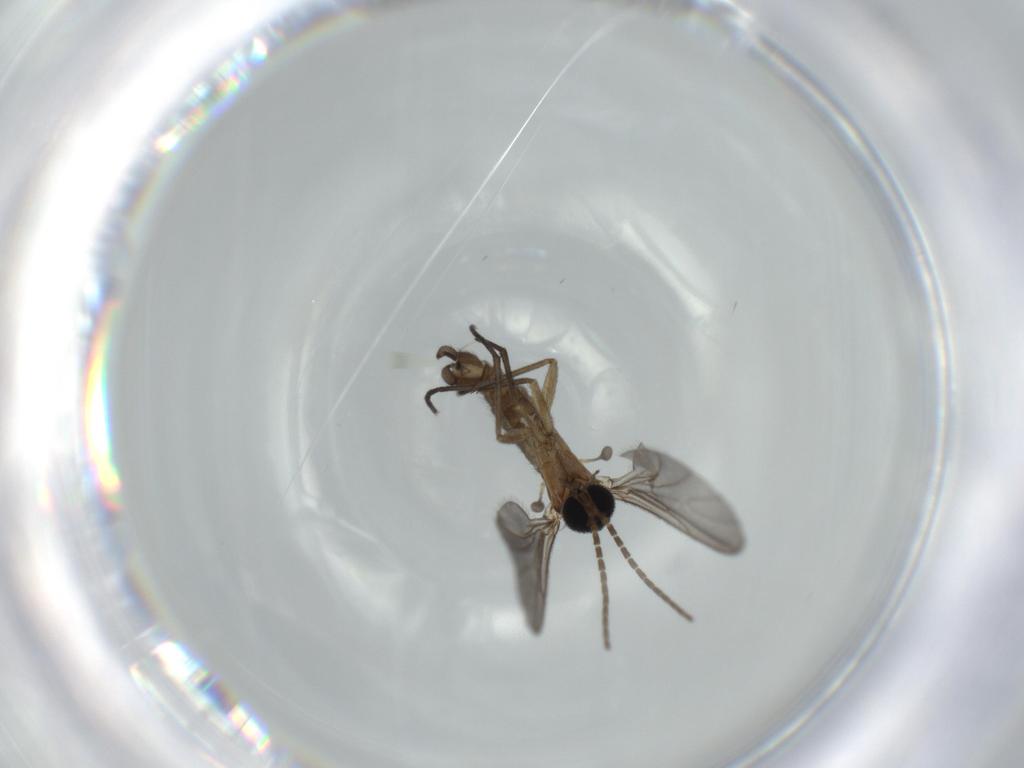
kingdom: Animalia
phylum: Arthropoda
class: Insecta
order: Diptera
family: Sciaridae
